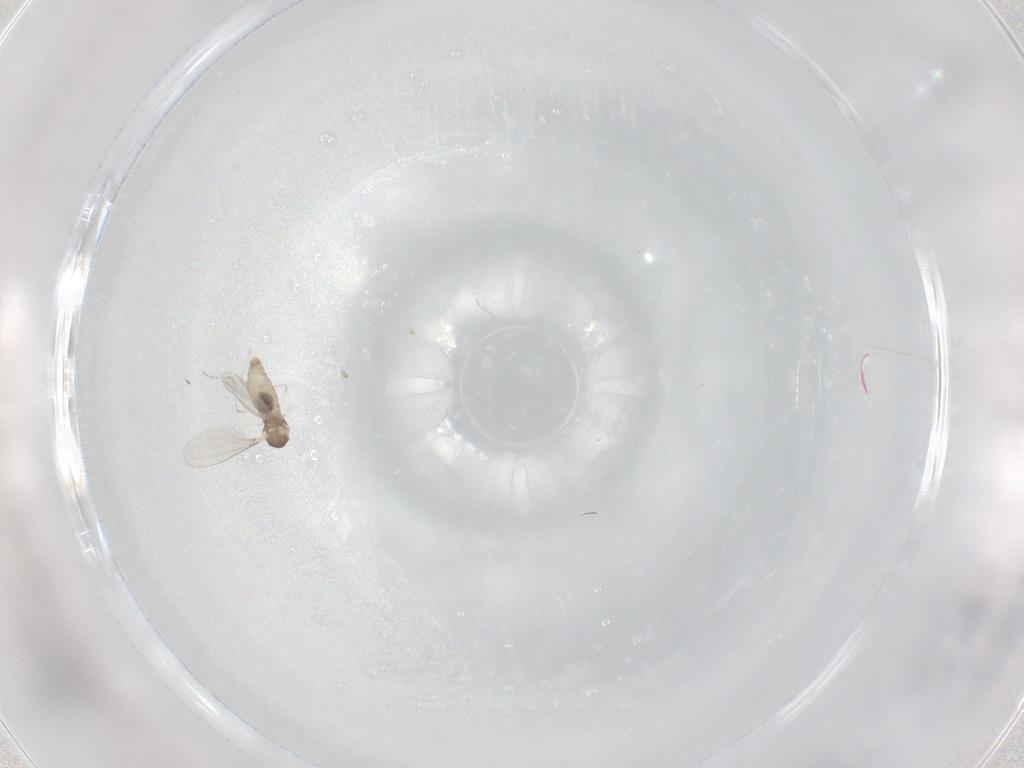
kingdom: Animalia
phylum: Arthropoda
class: Insecta
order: Diptera
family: Cecidomyiidae
